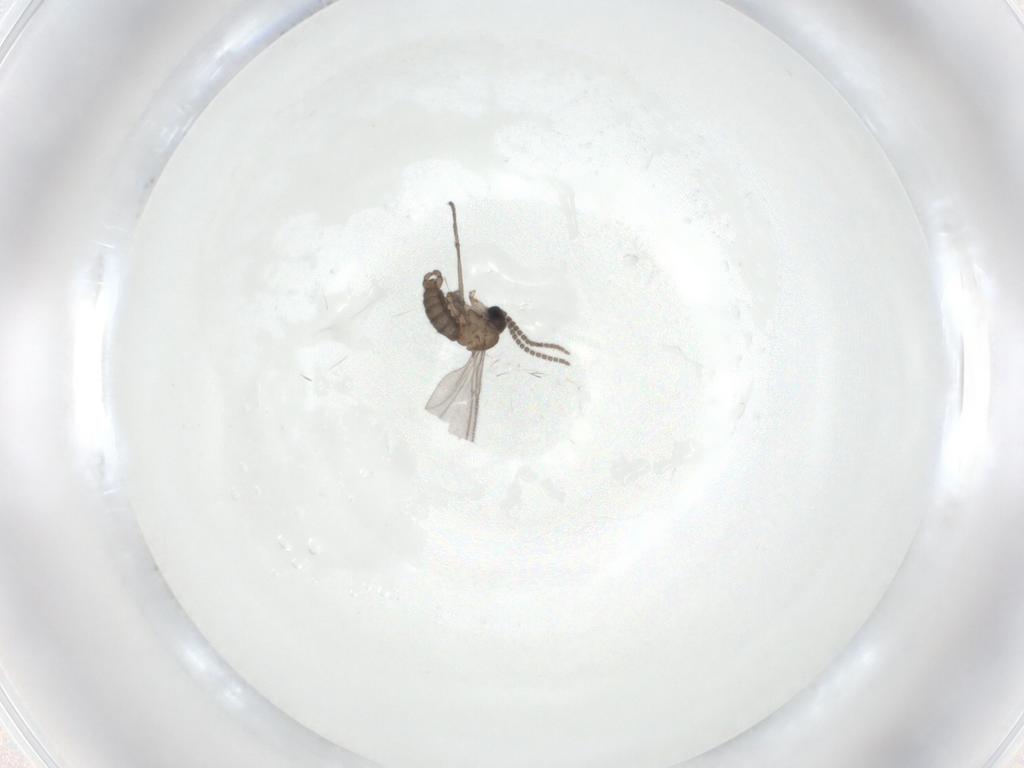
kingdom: Animalia
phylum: Arthropoda
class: Insecta
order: Diptera
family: Sciaridae
